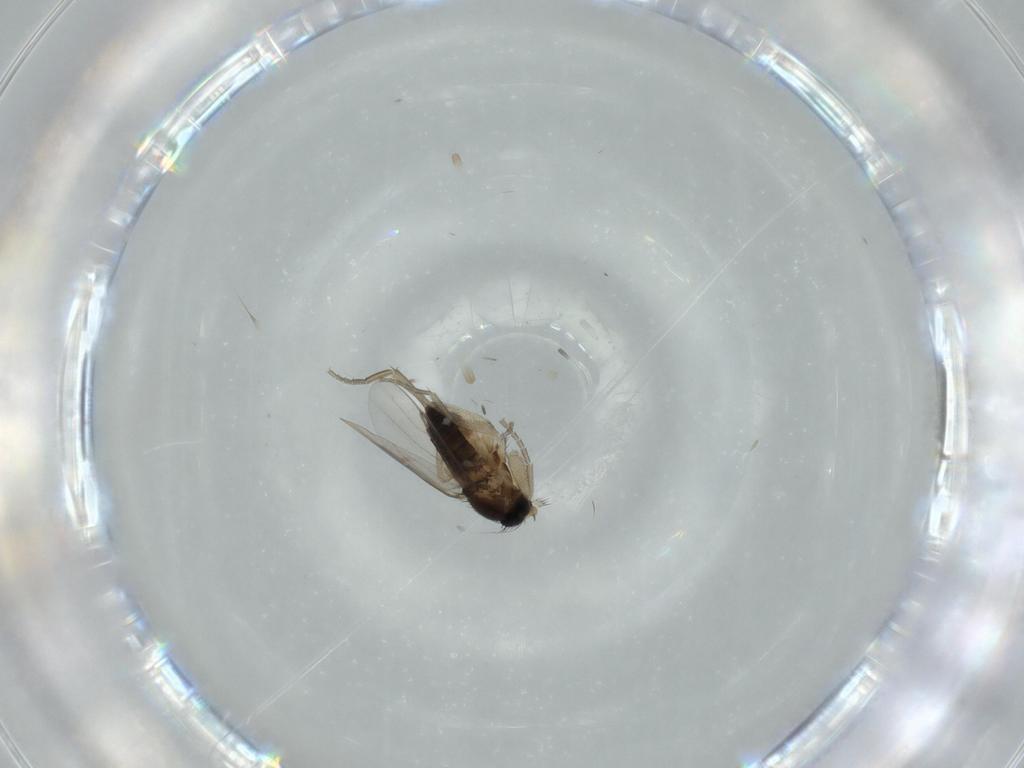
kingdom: Animalia
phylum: Arthropoda
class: Insecta
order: Diptera
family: Phoridae
